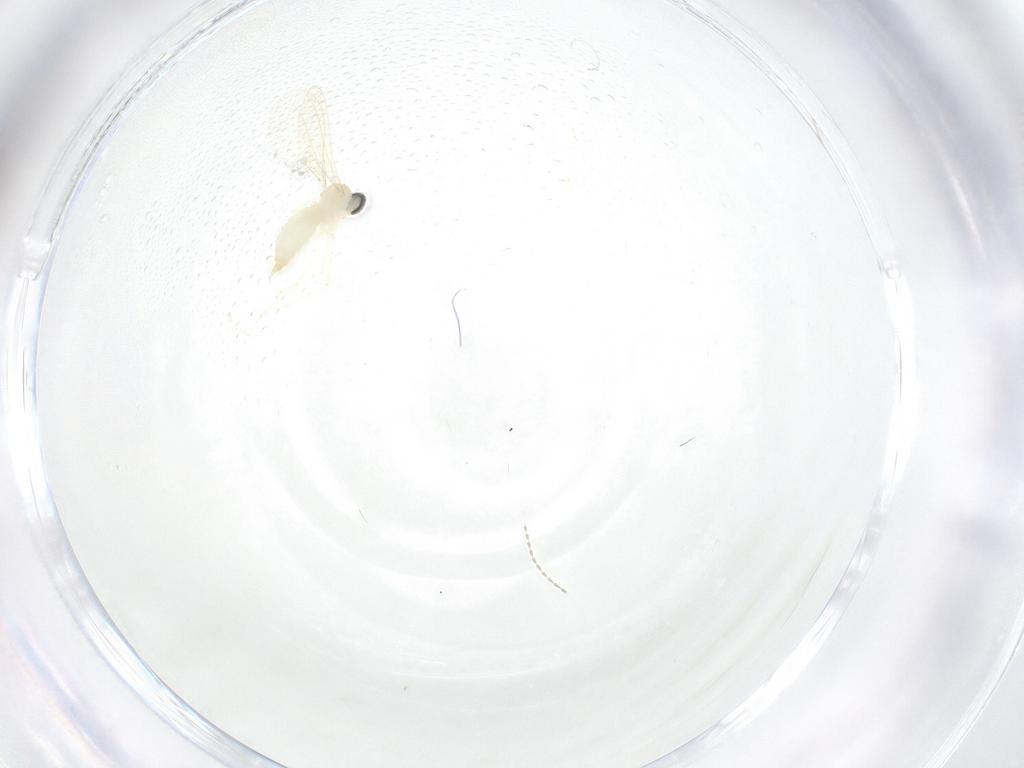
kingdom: Animalia
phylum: Arthropoda
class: Insecta
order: Diptera
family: Cecidomyiidae
